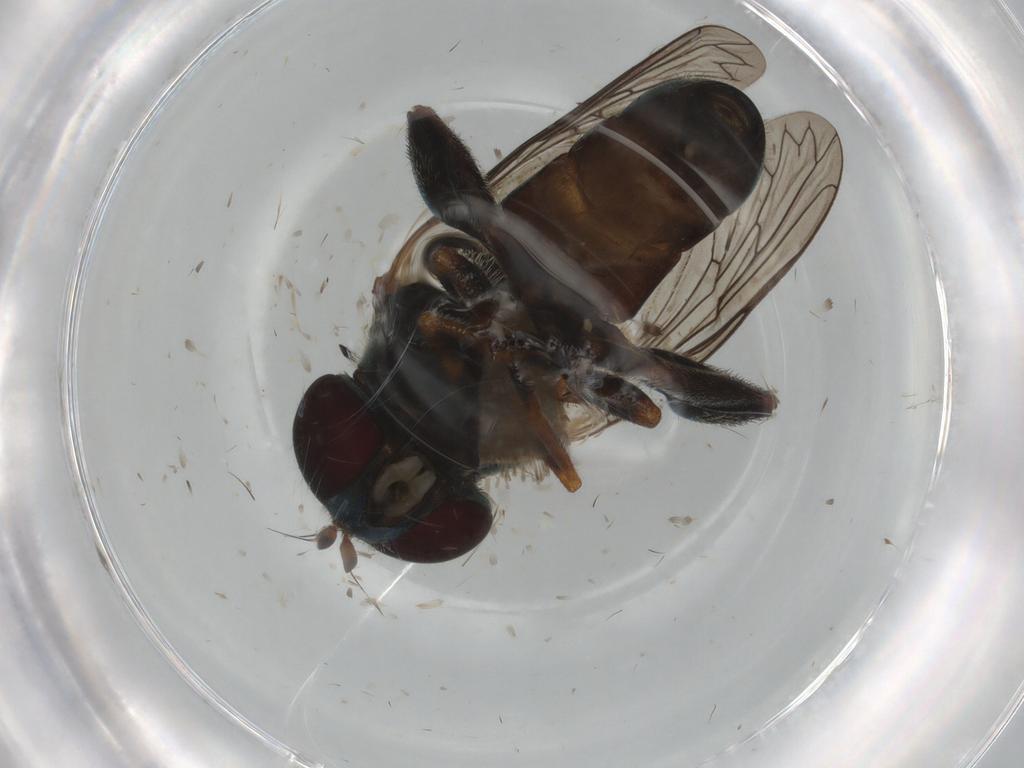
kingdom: Animalia
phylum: Arthropoda
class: Insecta
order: Diptera
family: Syrphidae
